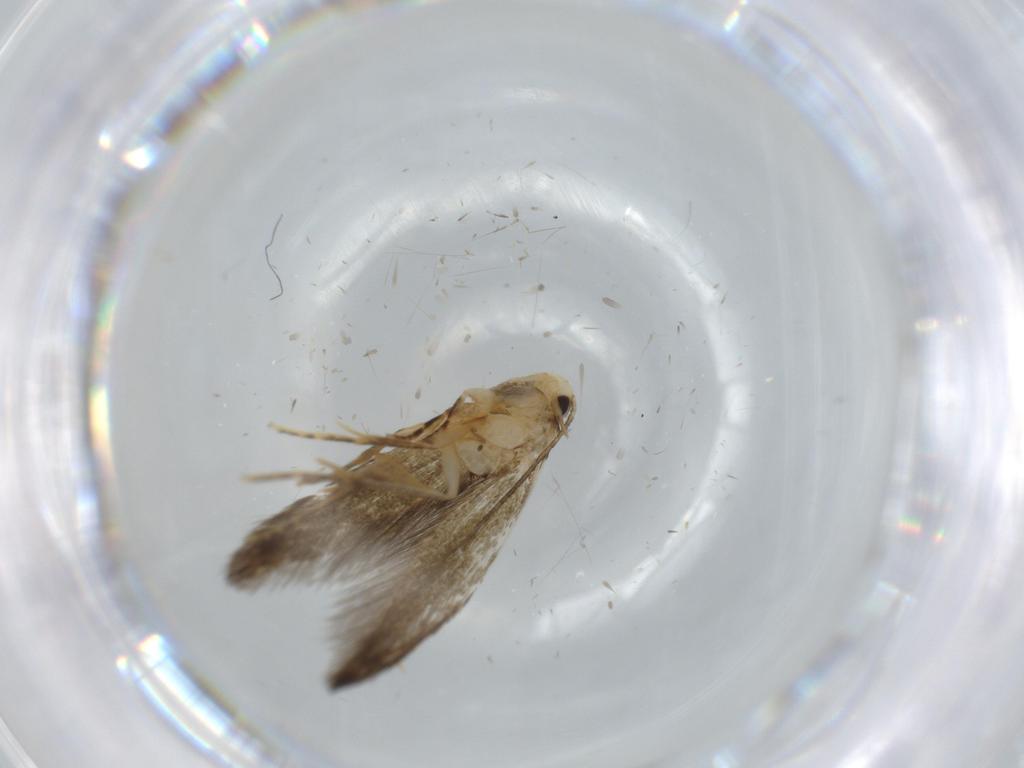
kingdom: Animalia
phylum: Arthropoda
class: Insecta
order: Lepidoptera
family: Tineidae
